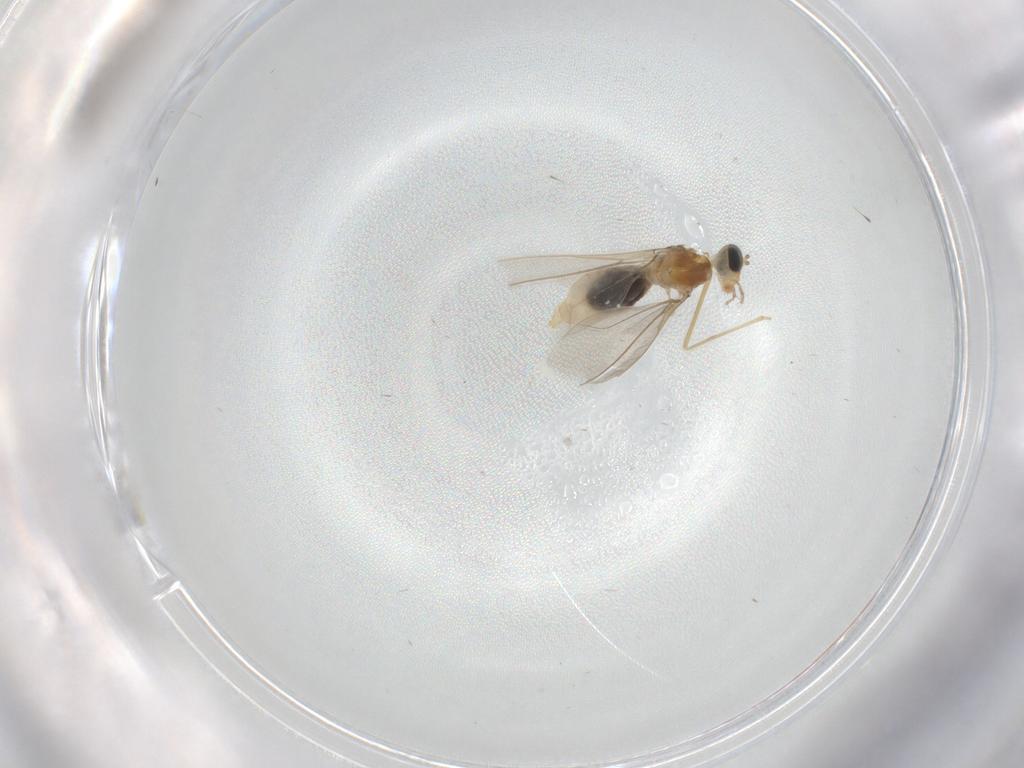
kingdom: Animalia
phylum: Arthropoda
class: Insecta
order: Diptera
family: Cecidomyiidae
